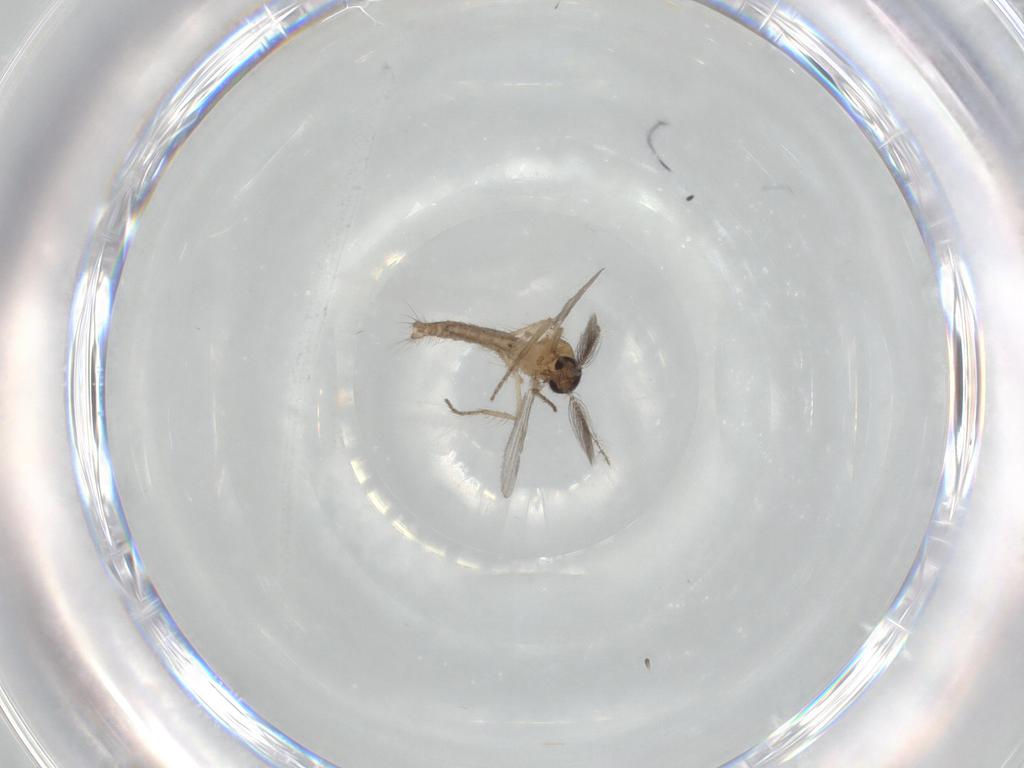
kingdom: Animalia
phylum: Arthropoda
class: Insecta
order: Diptera
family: Ceratopogonidae
